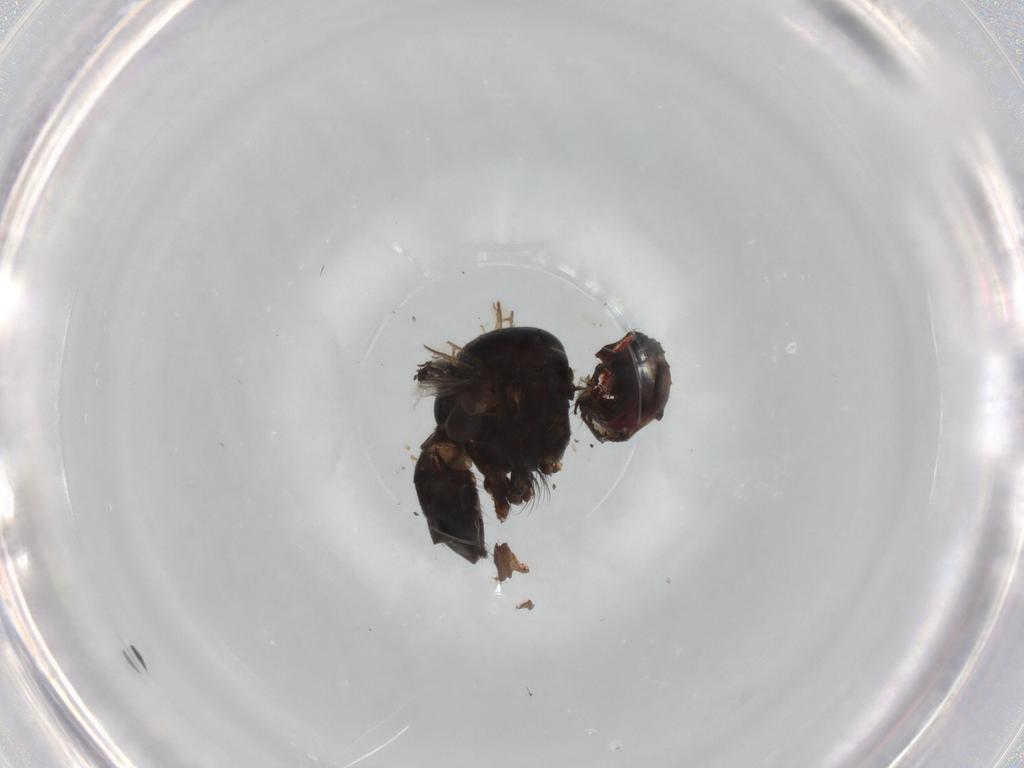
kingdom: Animalia
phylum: Arthropoda
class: Insecta
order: Diptera
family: Muscidae
